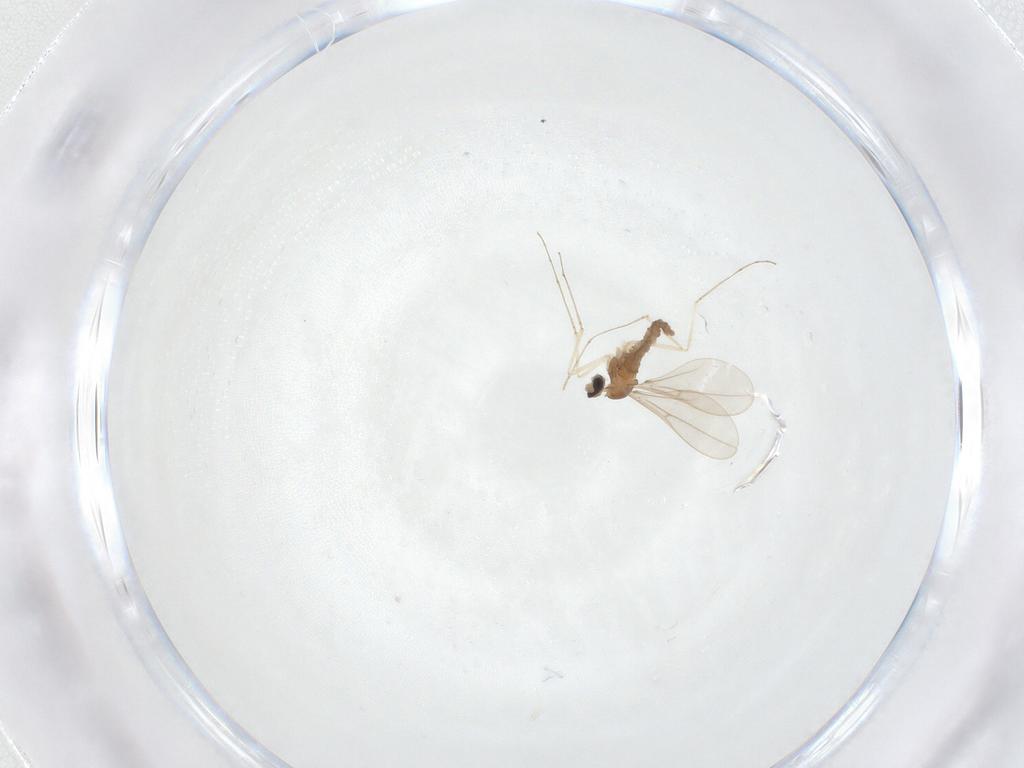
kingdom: Animalia
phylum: Arthropoda
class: Insecta
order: Diptera
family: Cecidomyiidae
